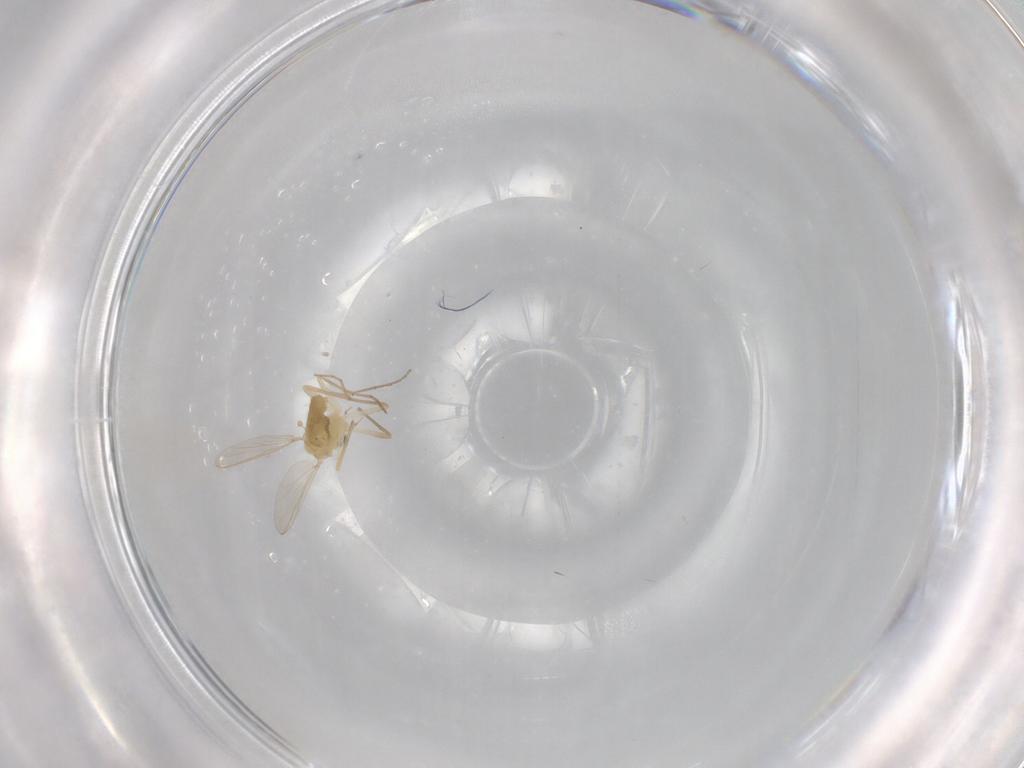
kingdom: Animalia
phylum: Arthropoda
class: Insecta
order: Diptera
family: Chironomidae
